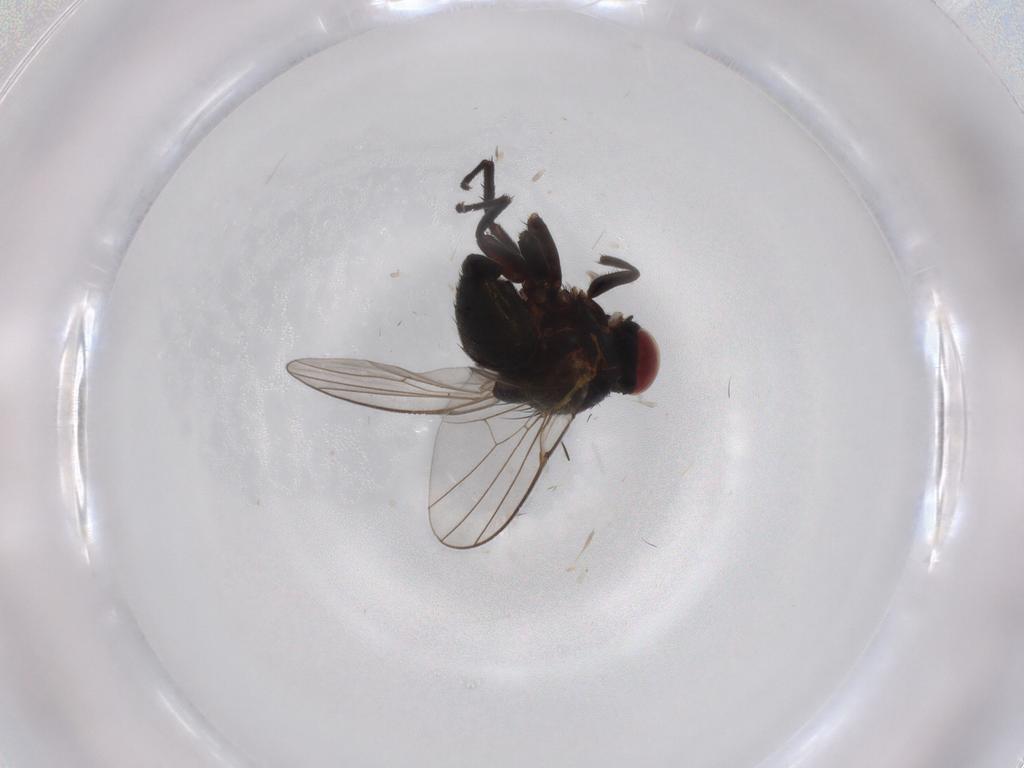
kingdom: Animalia
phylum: Arthropoda
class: Insecta
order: Diptera
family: Agromyzidae
